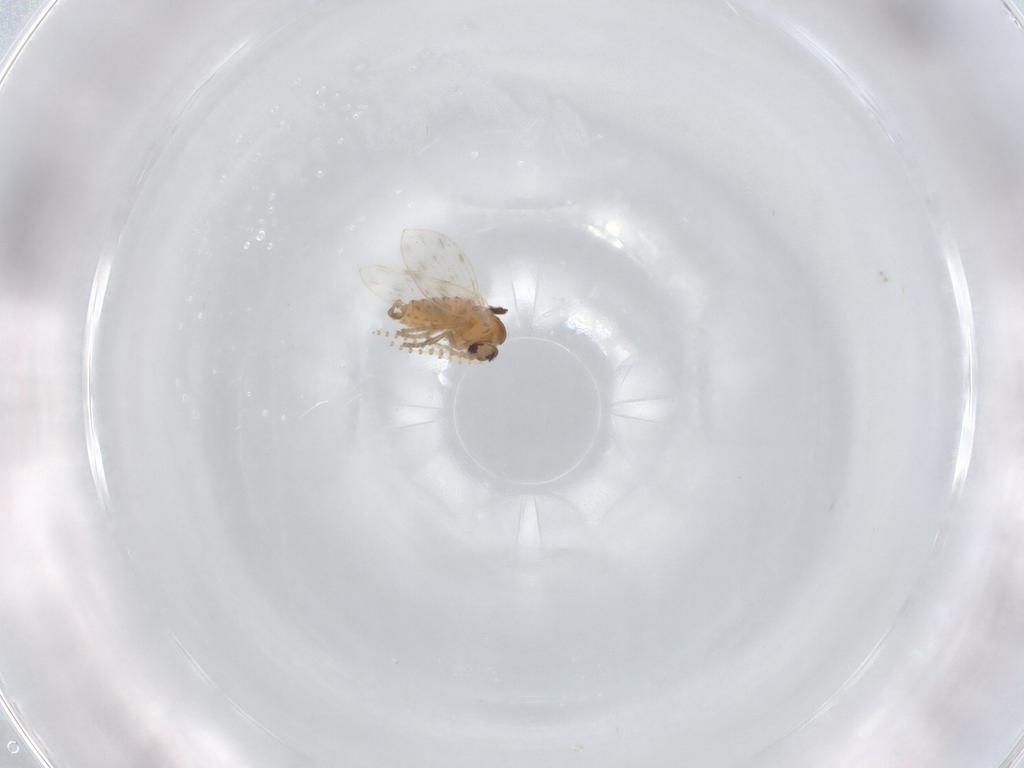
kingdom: Animalia
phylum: Arthropoda
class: Insecta
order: Diptera
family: Psychodidae
